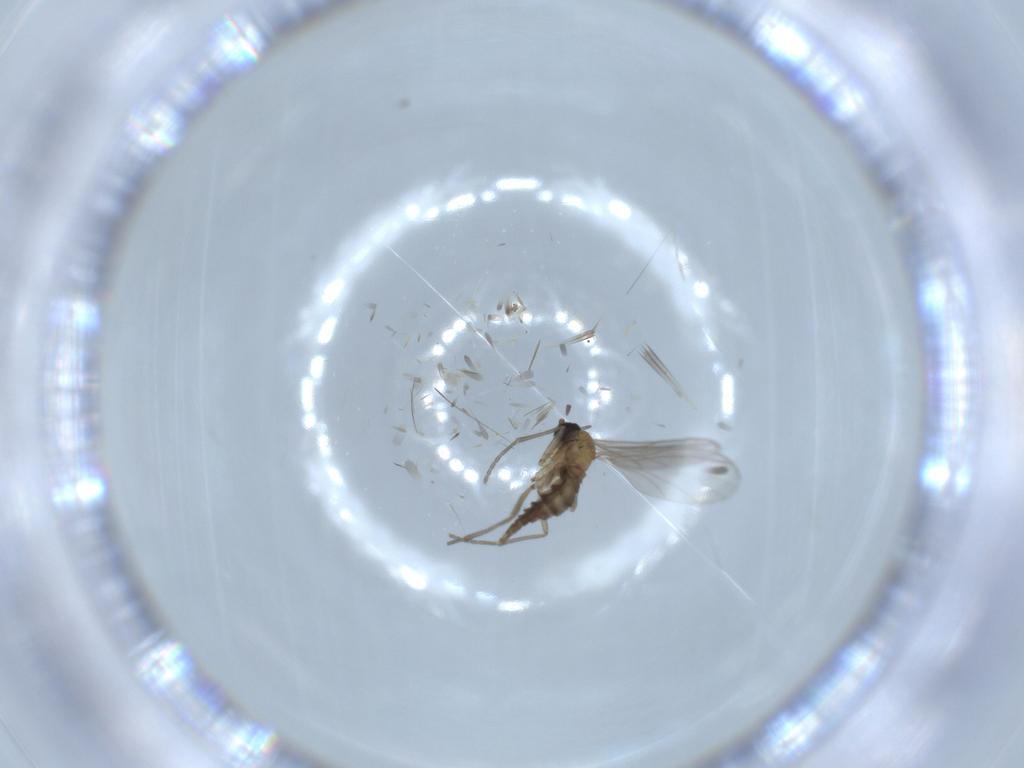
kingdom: Animalia
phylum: Arthropoda
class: Insecta
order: Diptera
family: Sciaridae
